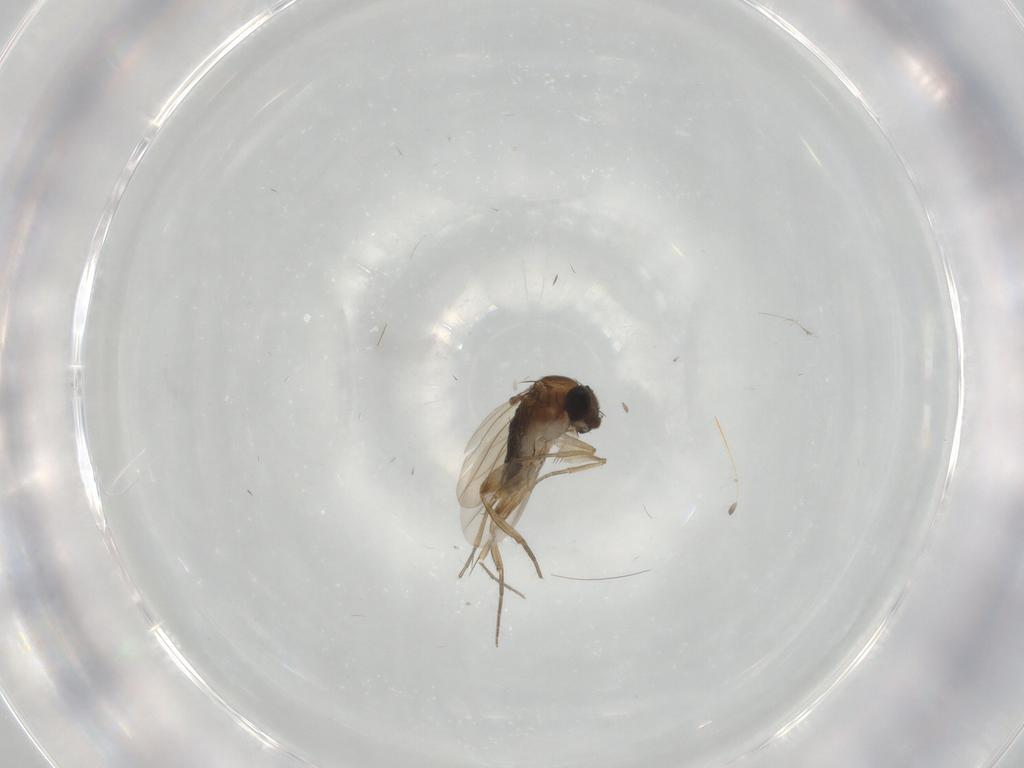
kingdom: Animalia
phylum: Arthropoda
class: Insecta
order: Diptera
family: Phoridae
